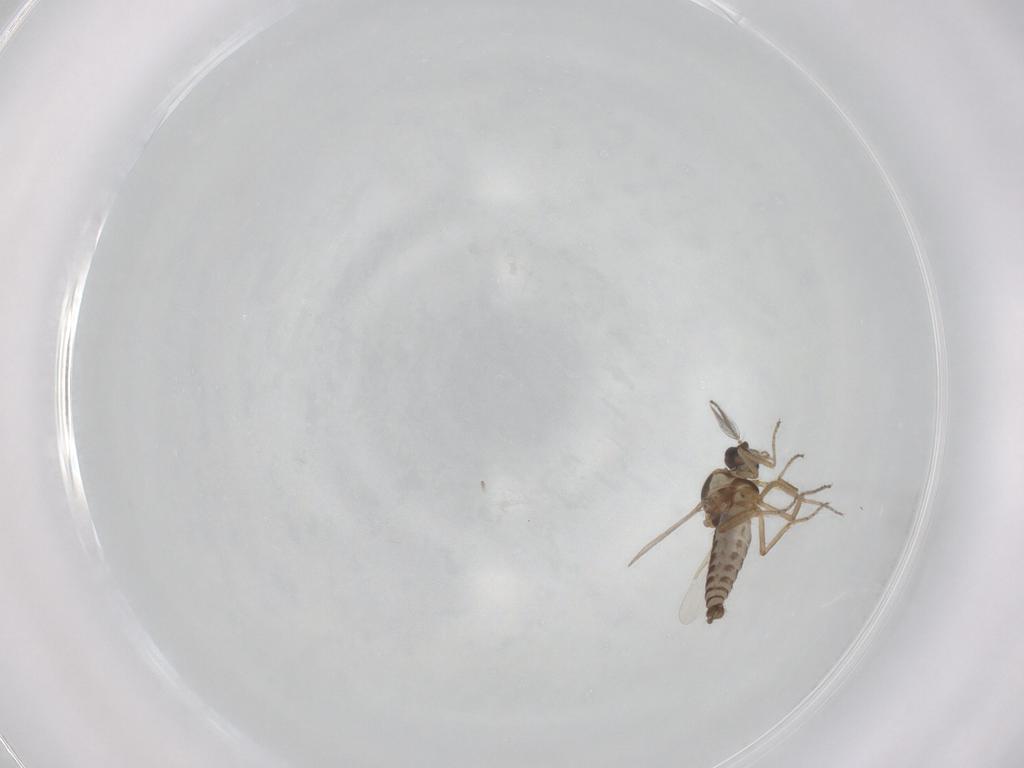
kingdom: Animalia
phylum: Arthropoda
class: Insecta
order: Diptera
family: Ceratopogonidae
